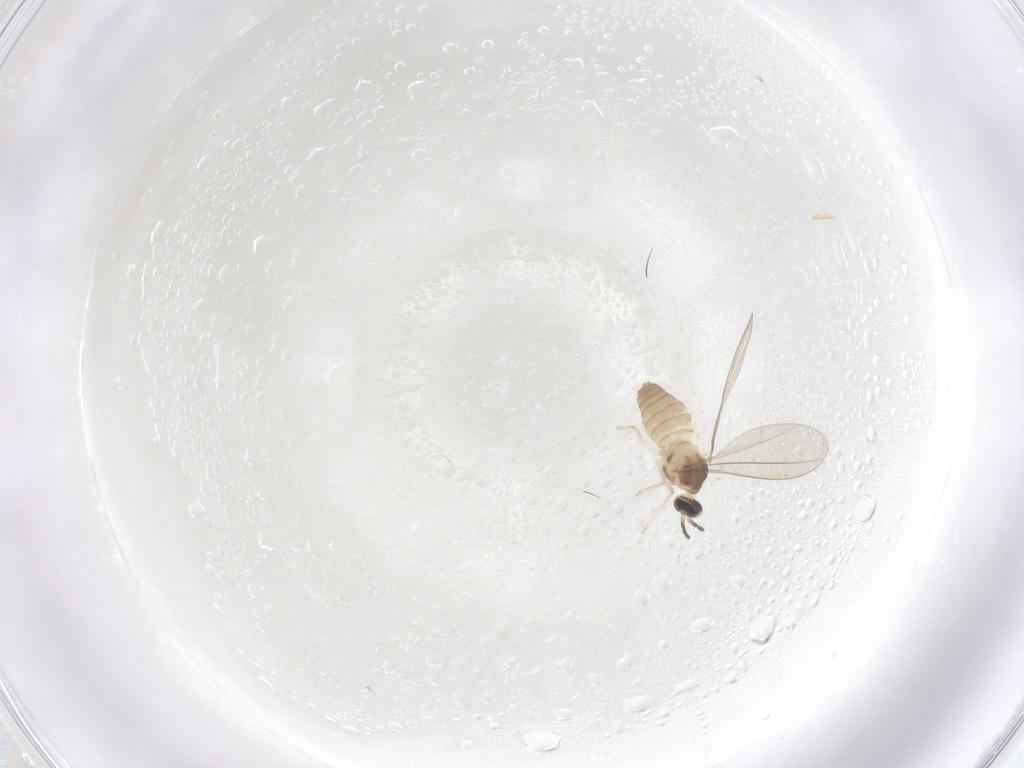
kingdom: Animalia
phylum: Arthropoda
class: Insecta
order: Diptera
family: Cecidomyiidae
